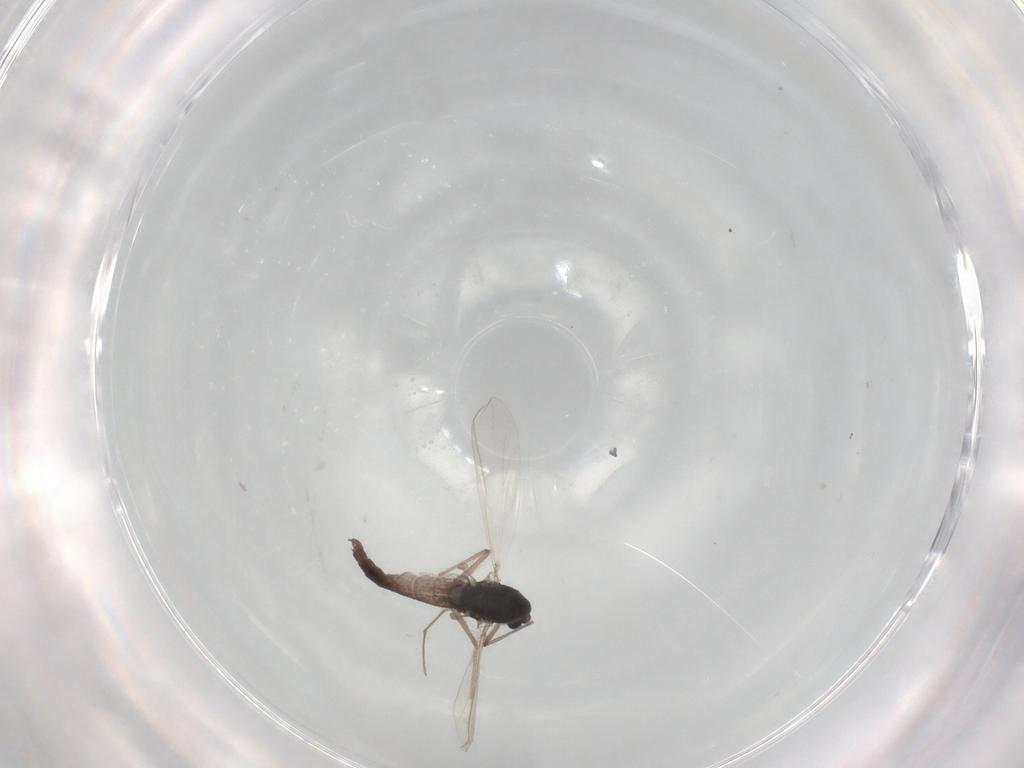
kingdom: Animalia
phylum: Arthropoda
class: Insecta
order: Diptera
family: Chironomidae
